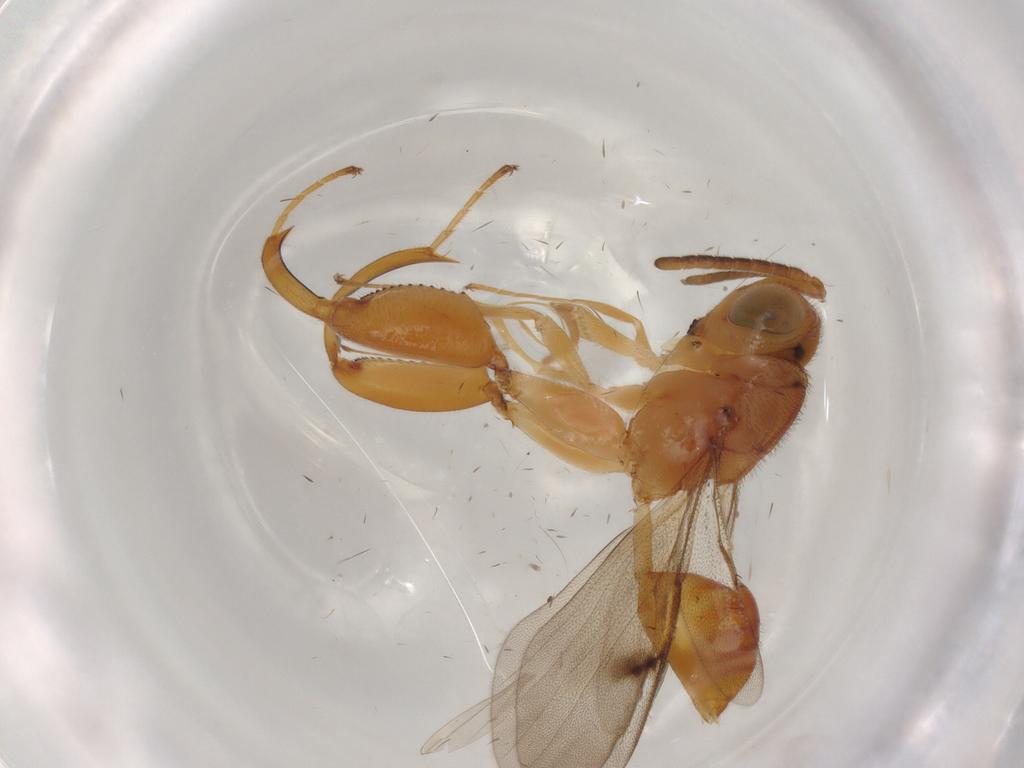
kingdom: Animalia
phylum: Arthropoda
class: Insecta
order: Hymenoptera
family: Chalcididae
